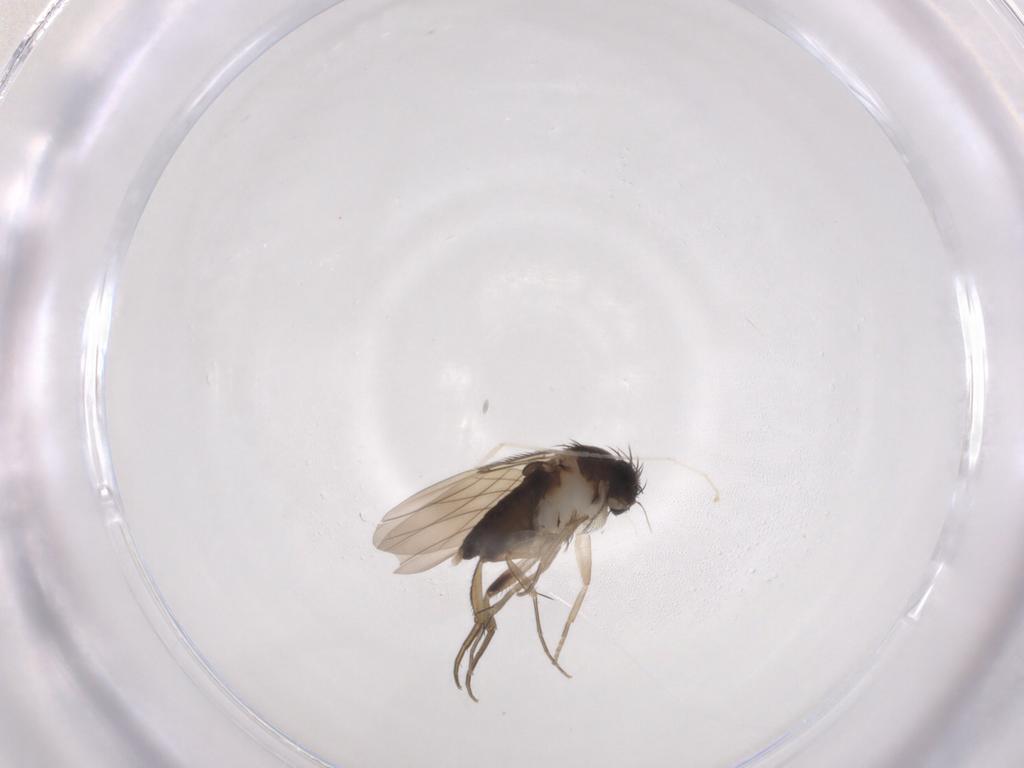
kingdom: Animalia
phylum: Arthropoda
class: Insecta
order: Diptera
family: Phoridae
